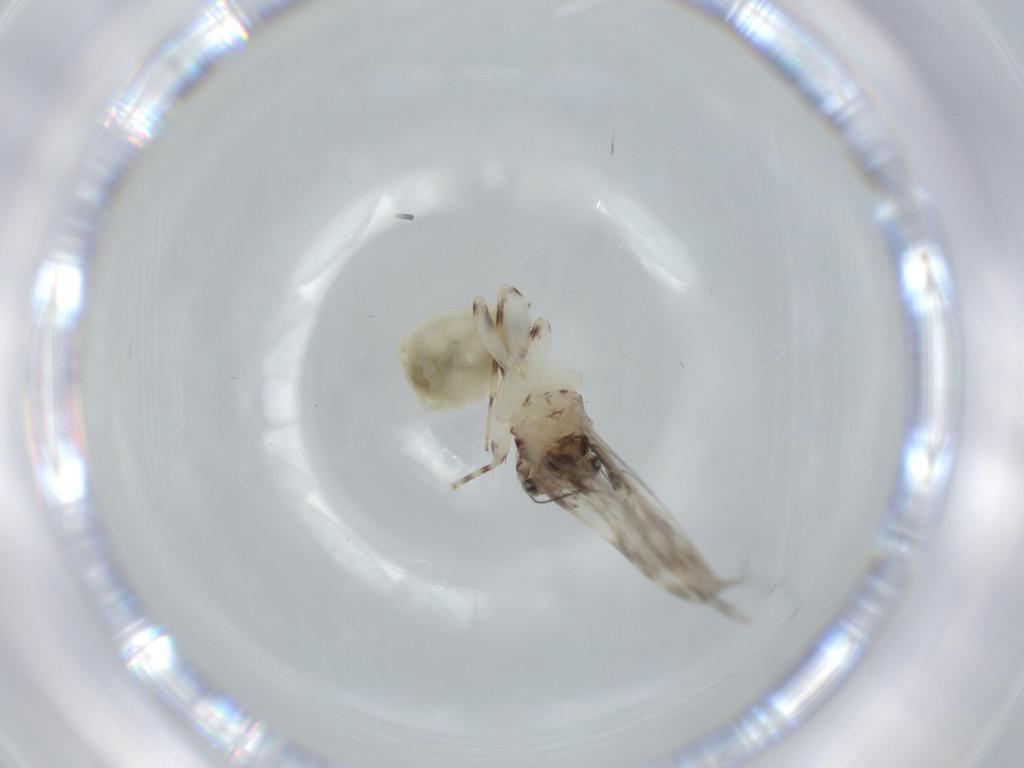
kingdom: Animalia
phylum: Arthropoda
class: Insecta
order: Psocodea
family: Lepidopsocidae
